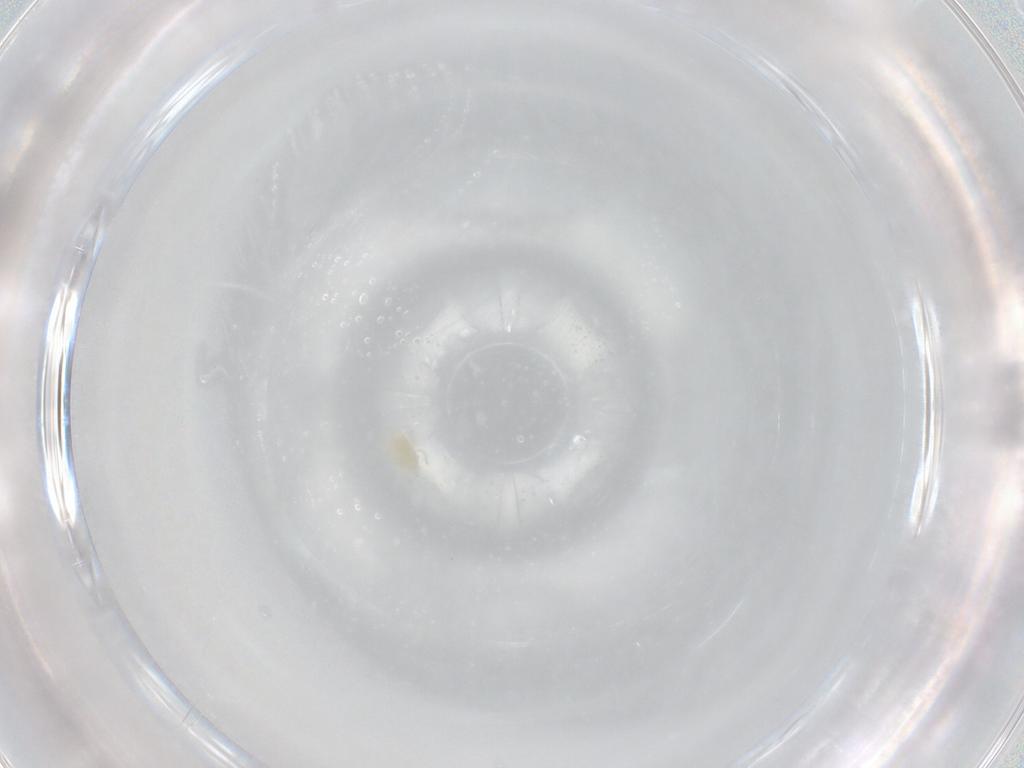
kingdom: Animalia
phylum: Arthropoda
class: Arachnida
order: Trombidiformes
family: Eupodidae
